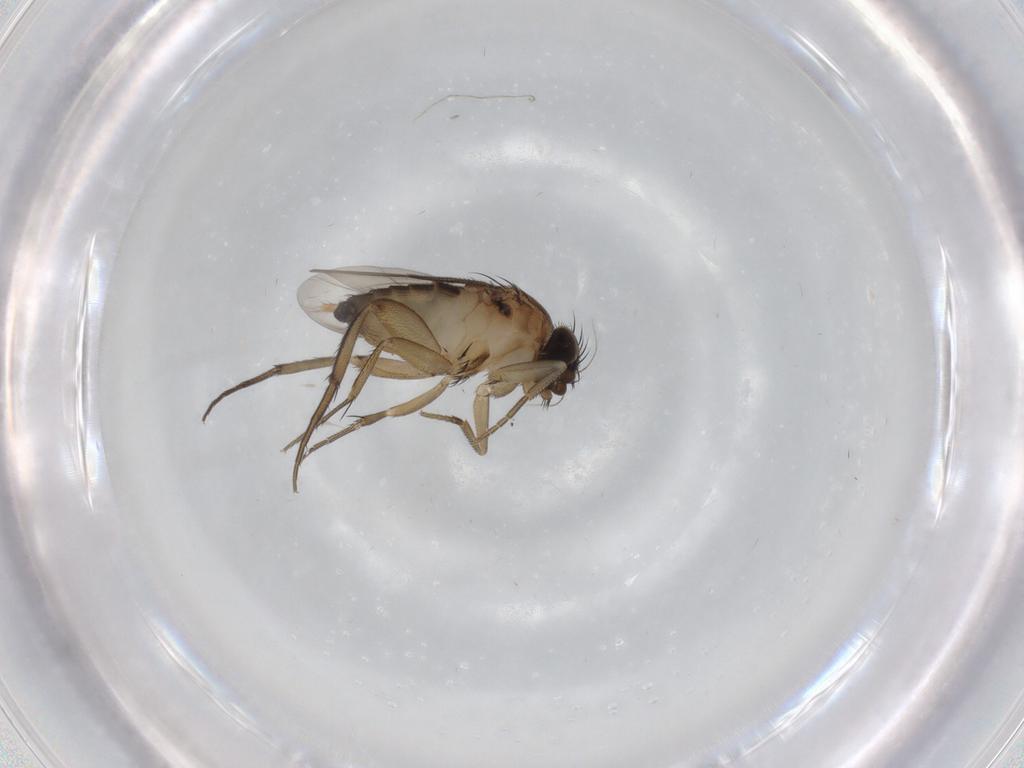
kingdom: Animalia
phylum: Arthropoda
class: Insecta
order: Diptera
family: Phoridae
